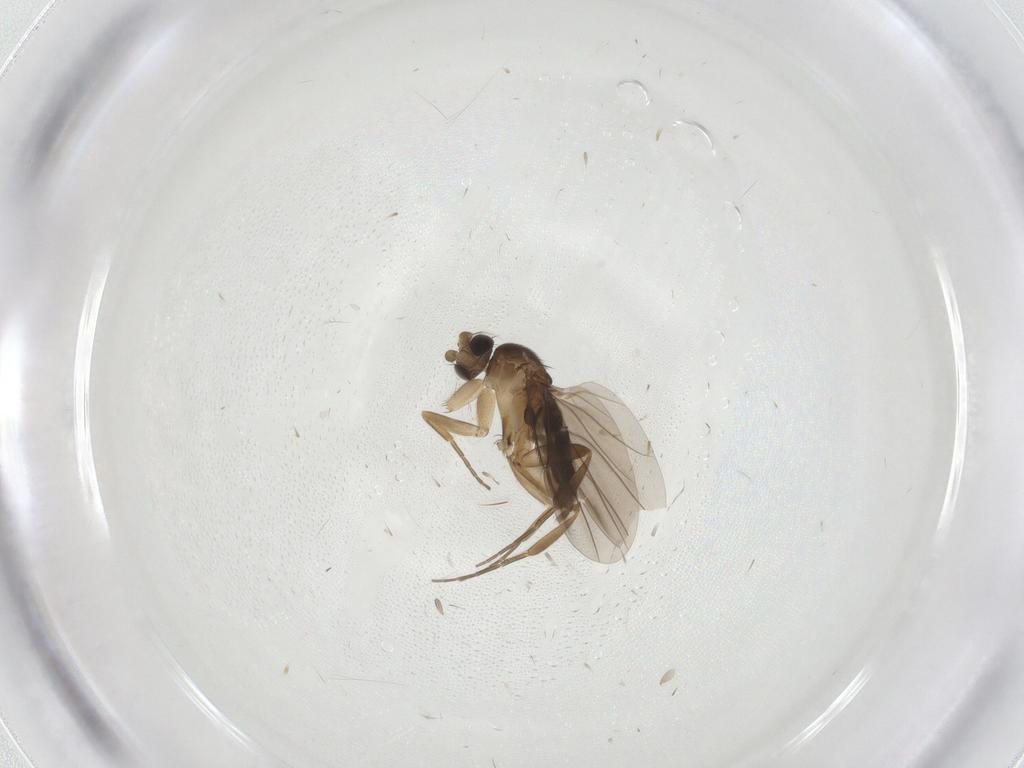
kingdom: Animalia
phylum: Arthropoda
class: Insecta
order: Diptera
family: Phoridae
